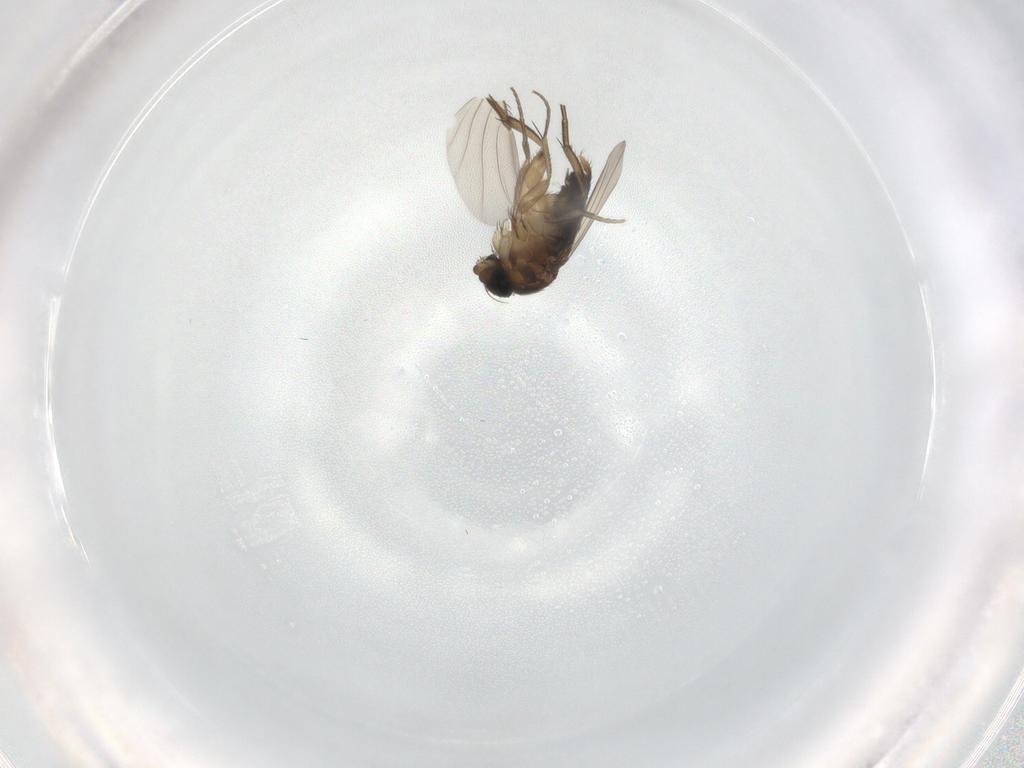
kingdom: Animalia
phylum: Arthropoda
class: Insecta
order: Diptera
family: Phoridae
